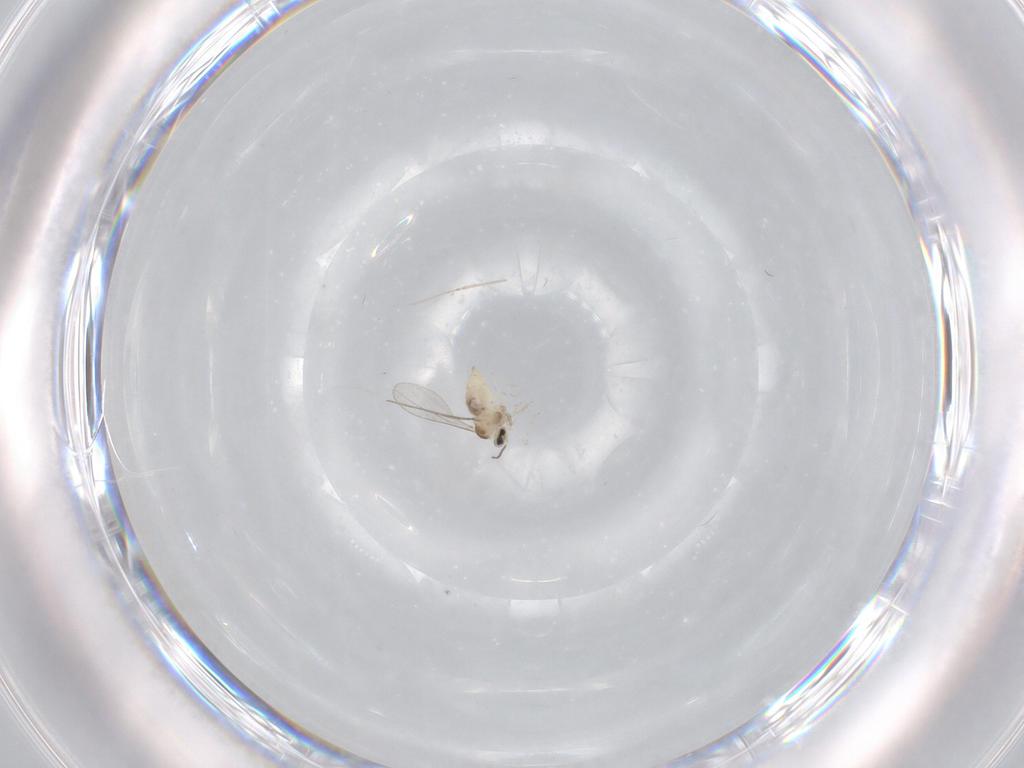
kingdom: Animalia
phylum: Arthropoda
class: Insecta
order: Diptera
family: Cecidomyiidae
